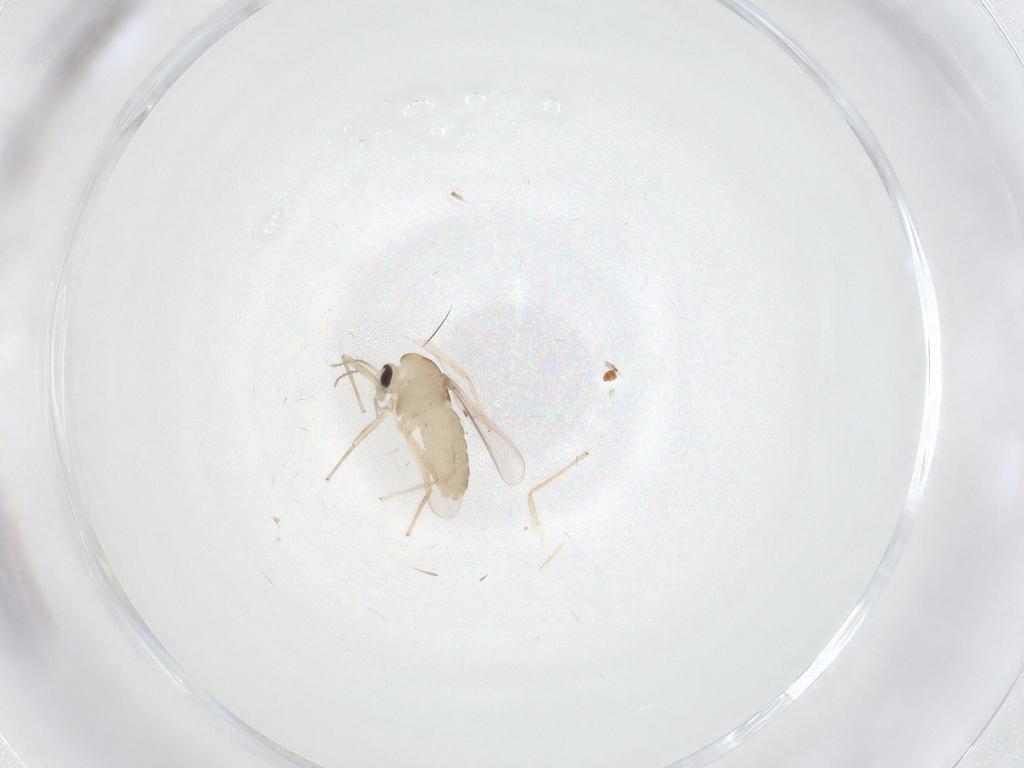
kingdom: Animalia
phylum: Arthropoda
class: Insecta
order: Diptera
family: Chironomidae
